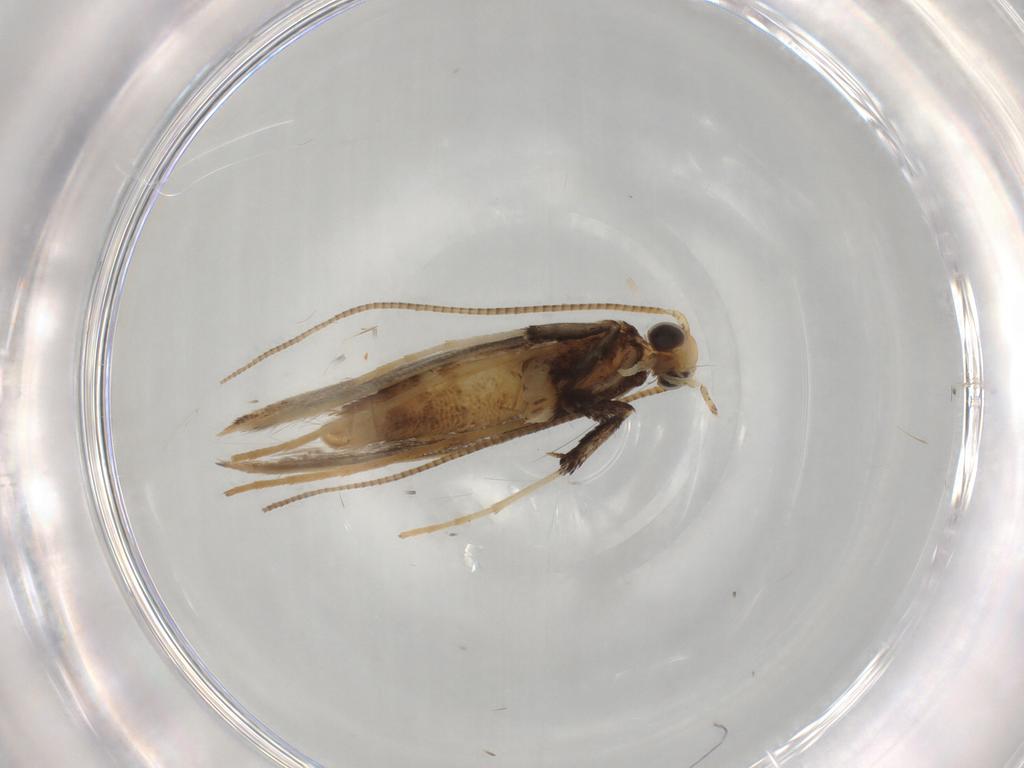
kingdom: Animalia
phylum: Arthropoda
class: Insecta
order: Lepidoptera
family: Gracillariidae
